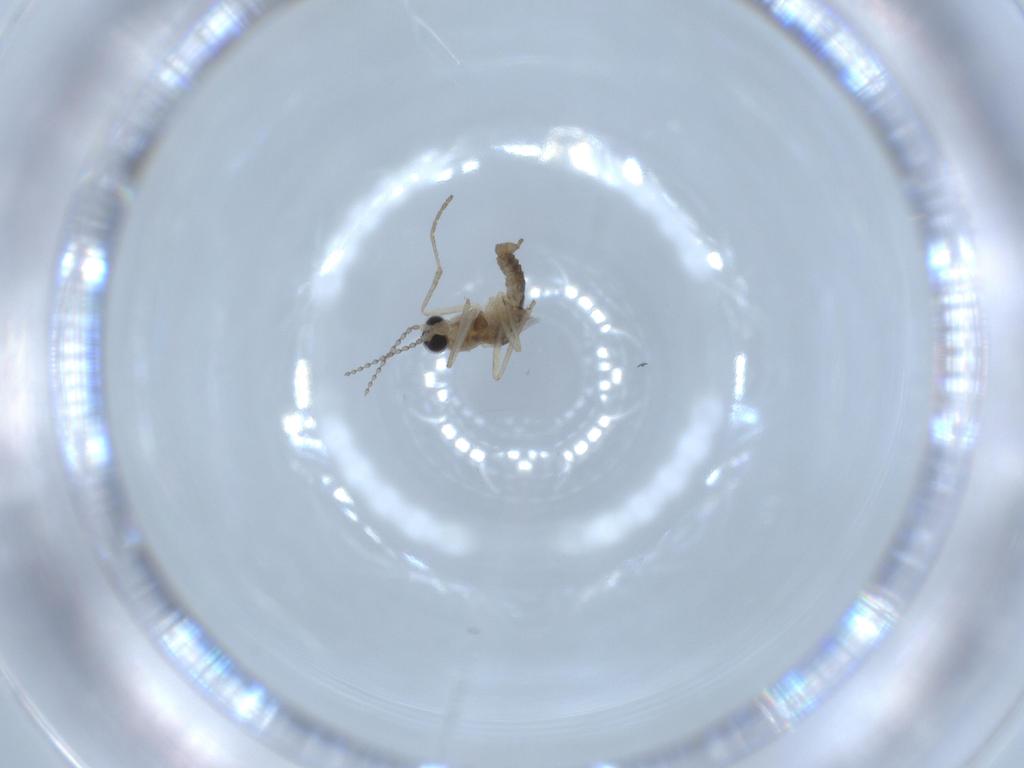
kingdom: Animalia
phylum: Arthropoda
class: Insecta
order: Diptera
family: Chironomidae
